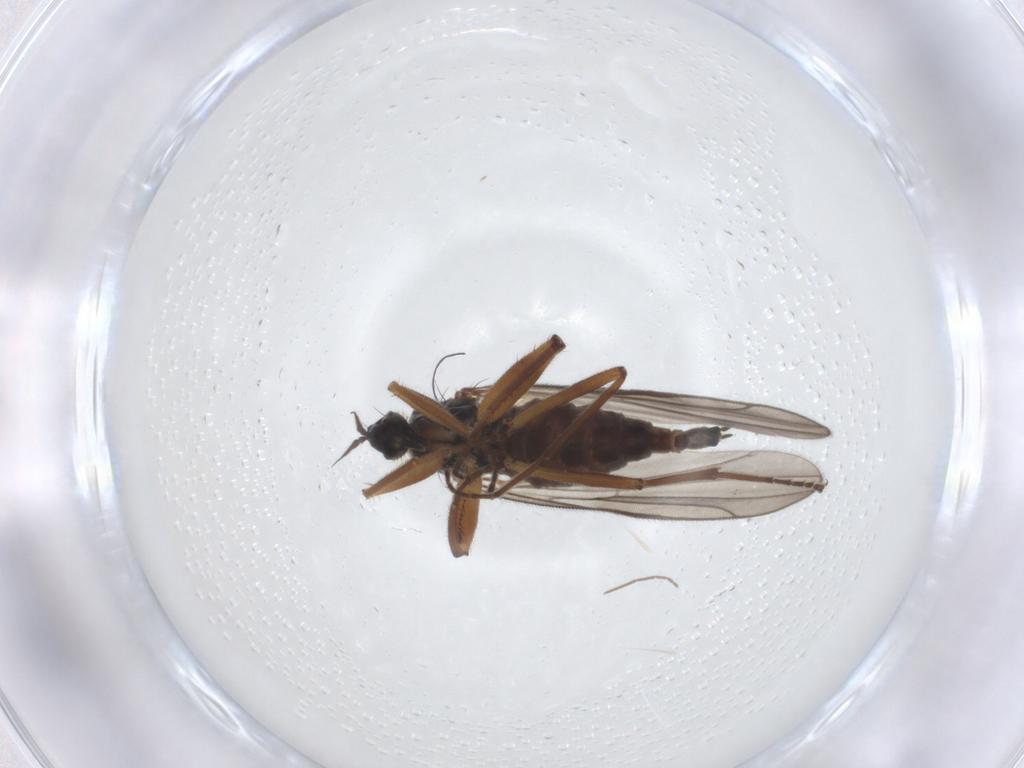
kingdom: Animalia
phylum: Arthropoda
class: Insecta
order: Diptera
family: Hybotidae
